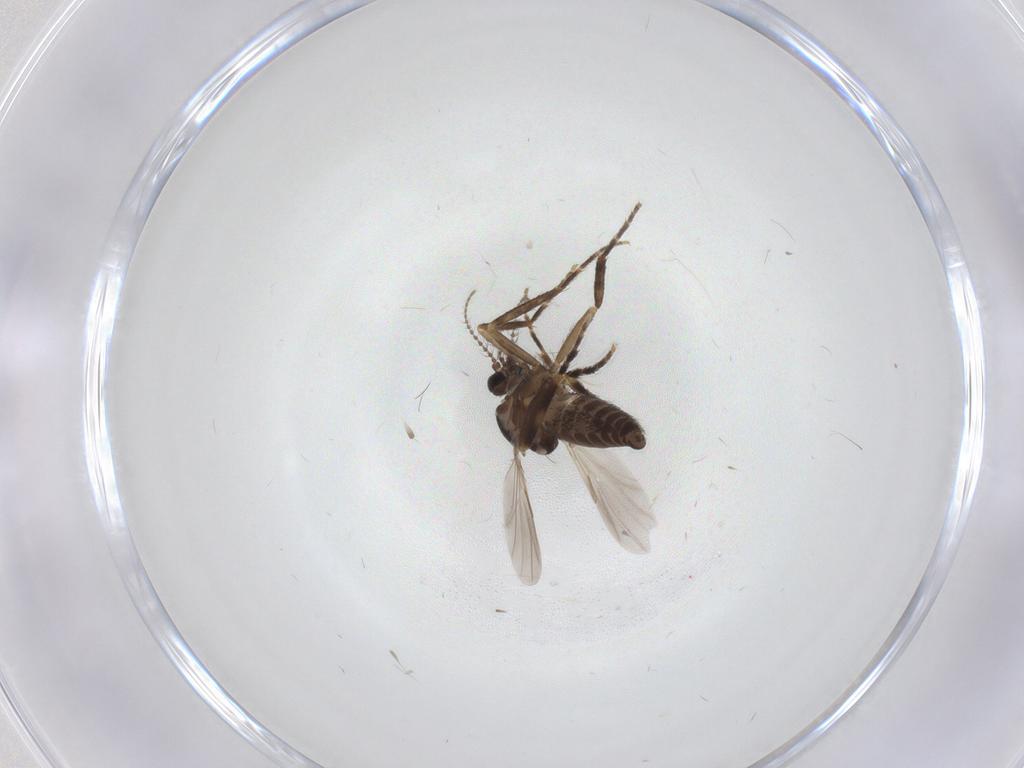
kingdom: Animalia
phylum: Arthropoda
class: Insecta
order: Diptera
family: Ceratopogonidae
